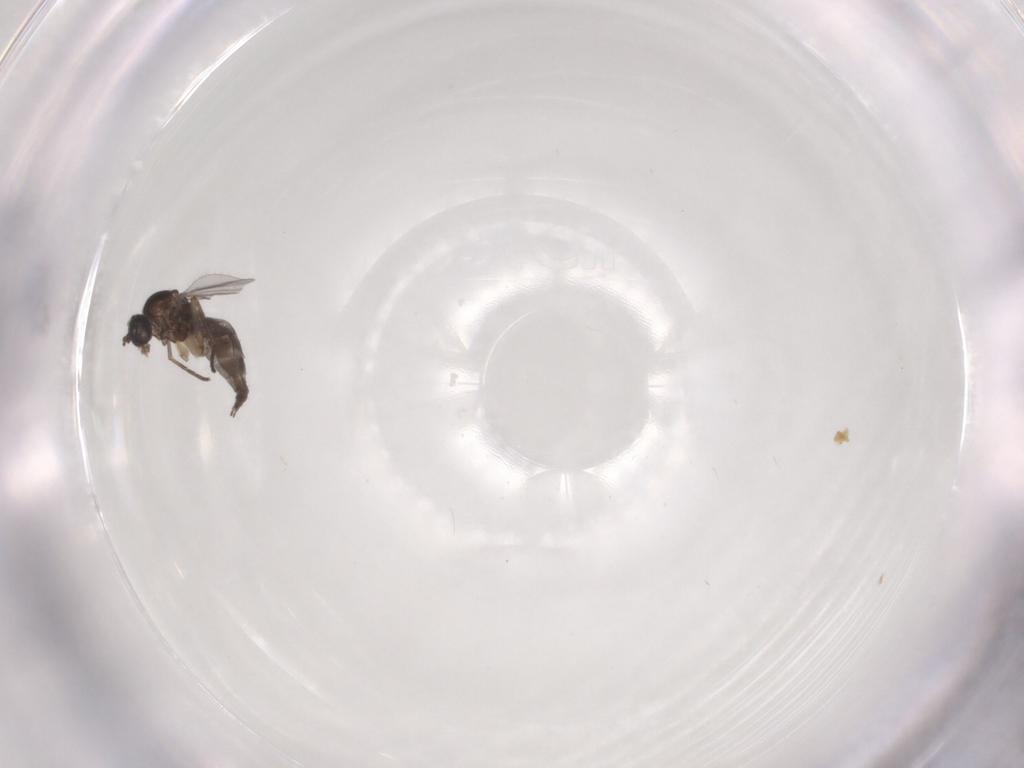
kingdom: Animalia
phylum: Arthropoda
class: Insecta
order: Diptera
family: Sciaridae
